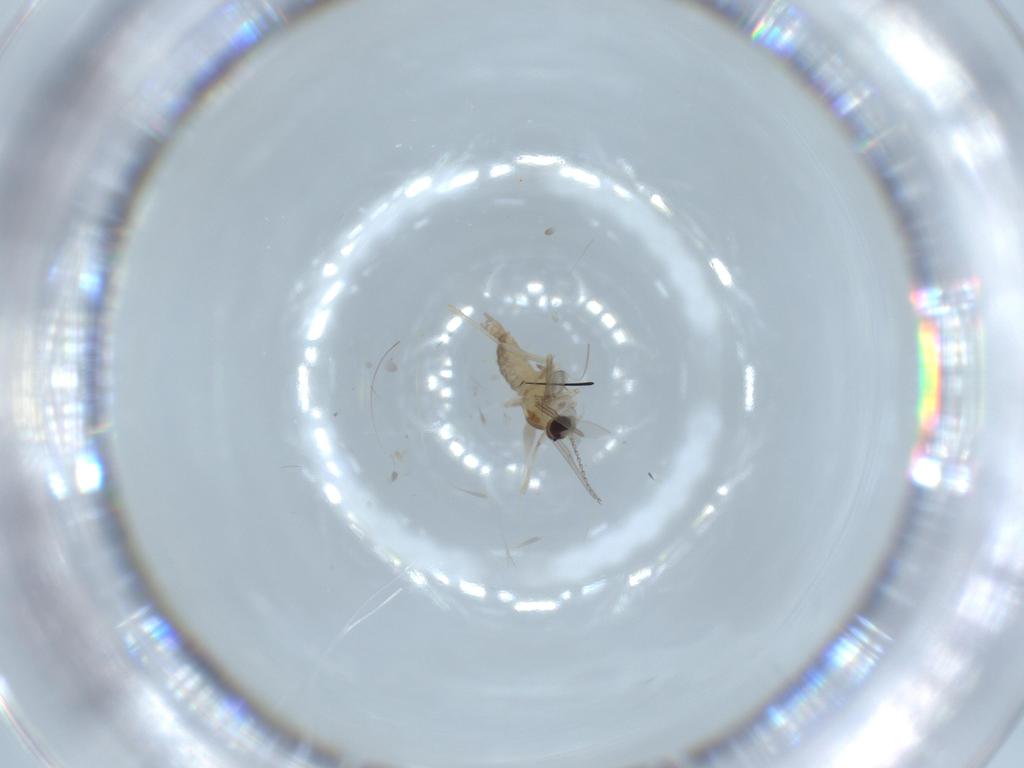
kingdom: Animalia
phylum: Arthropoda
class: Insecta
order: Diptera
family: Cecidomyiidae
